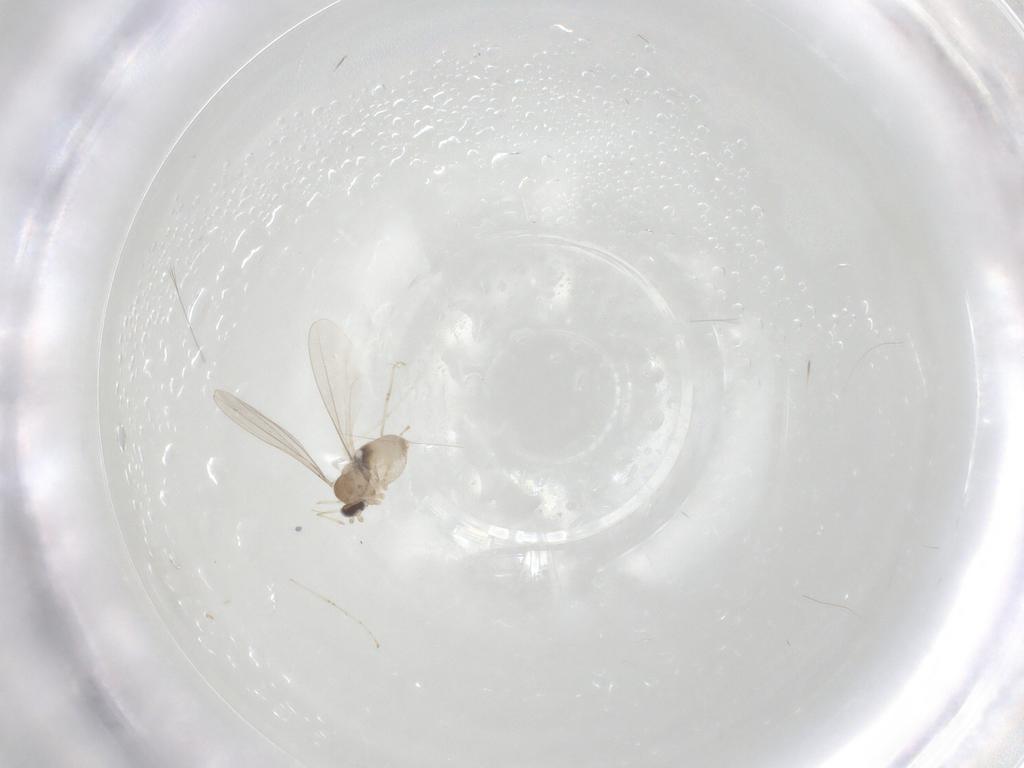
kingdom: Animalia
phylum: Arthropoda
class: Insecta
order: Diptera
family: Cecidomyiidae
